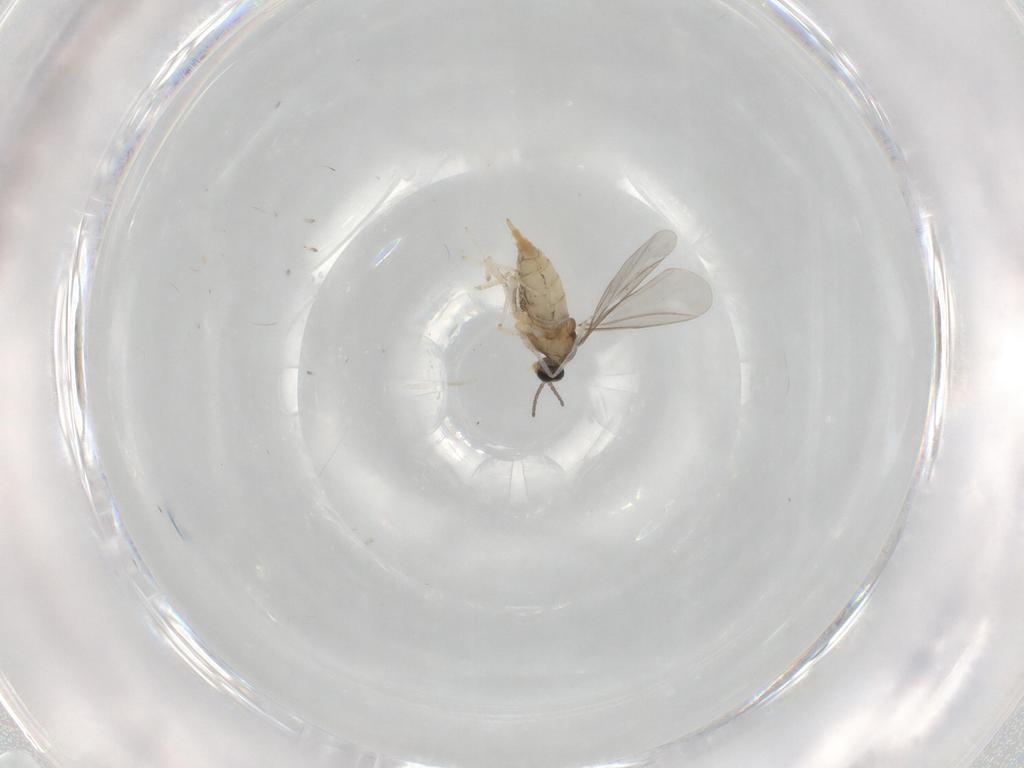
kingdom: Animalia
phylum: Arthropoda
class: Insecta
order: Diptera
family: Cecidomyiidae
